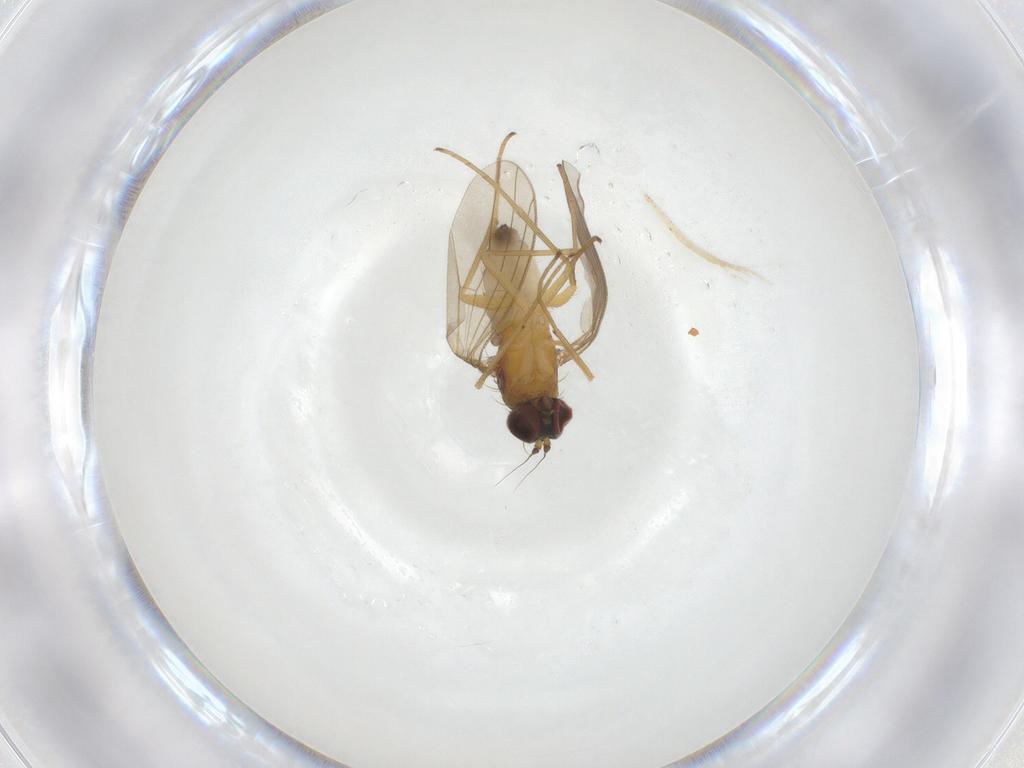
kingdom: Animalia
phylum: Arthropoda
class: Insecta
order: Diptera
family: Dolichopodidae
